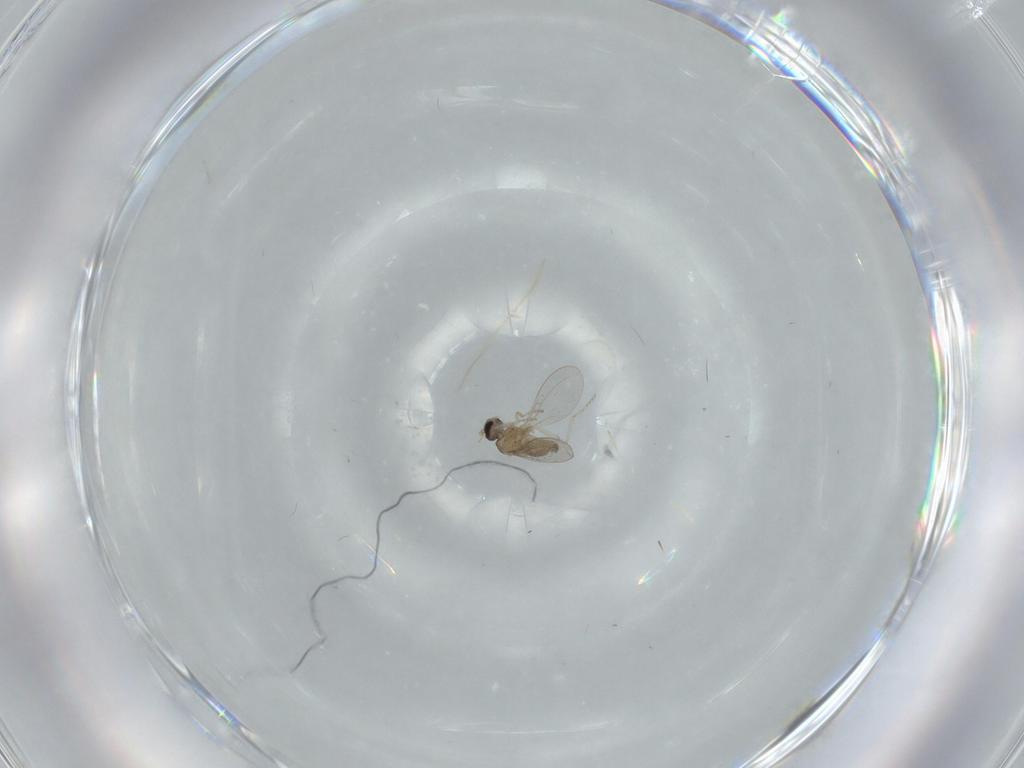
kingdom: Animalia
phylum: Arthropoda
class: Insecta
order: Diptera
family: Cecidomyiidae
